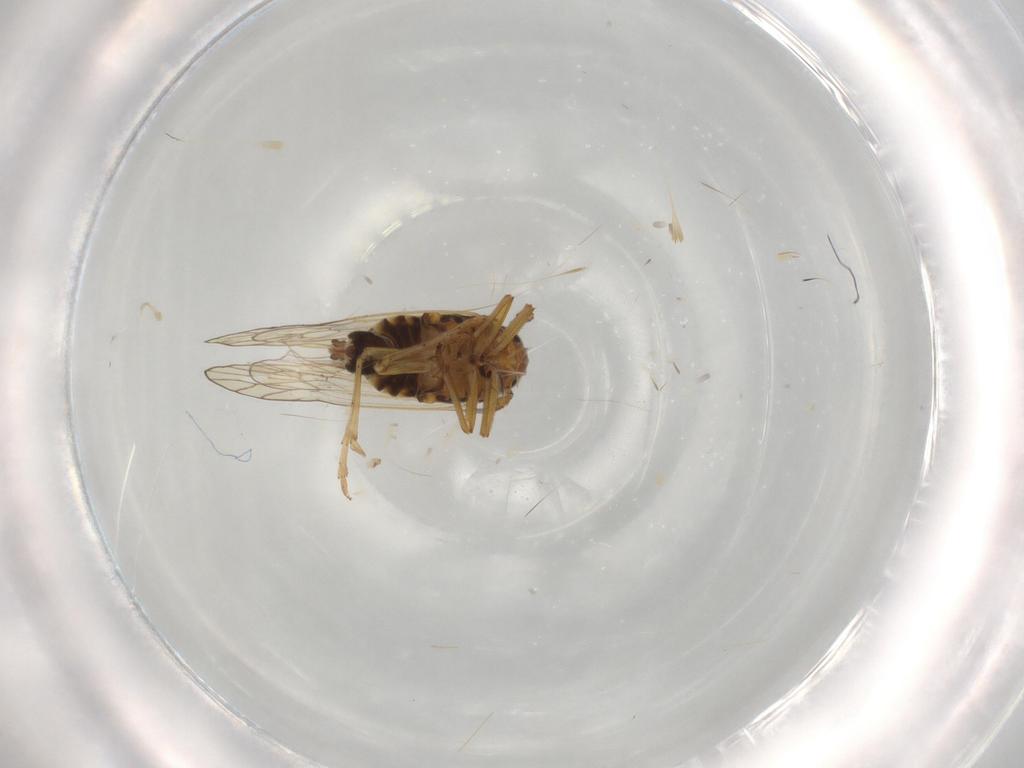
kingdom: Animalia
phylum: Arthropoda
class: Insecta
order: Hemiptera
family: Delphacidae
